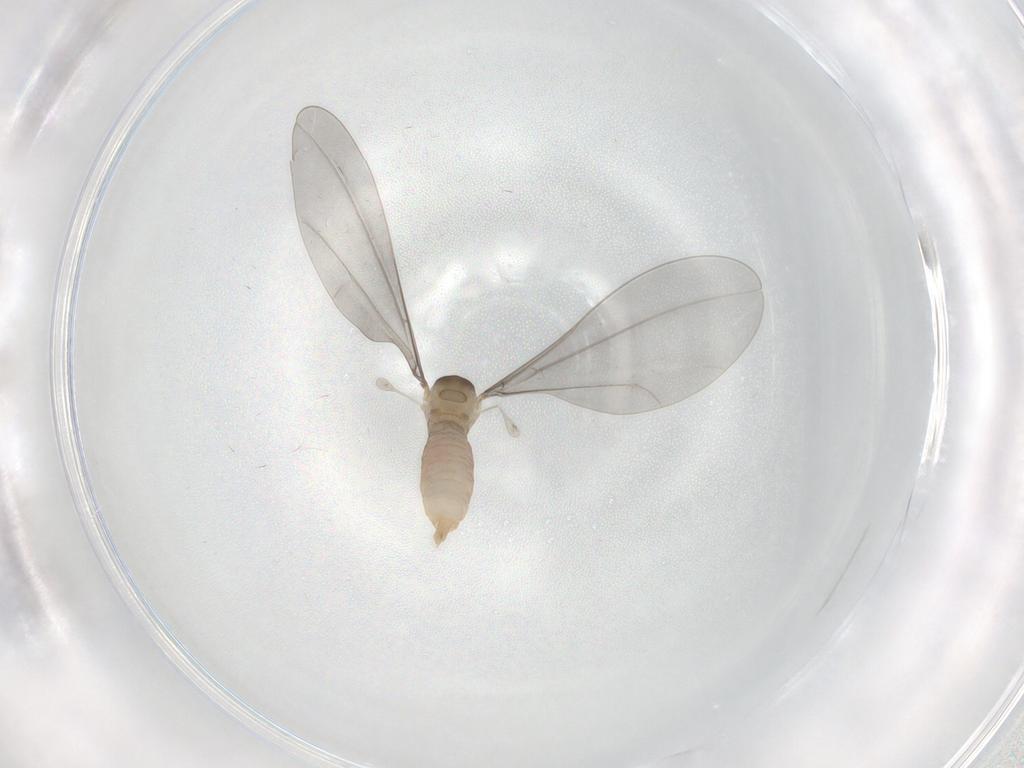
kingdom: Animalia
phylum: Arthropoda
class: Insecta
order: Diptera
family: Cecidomyiidae
